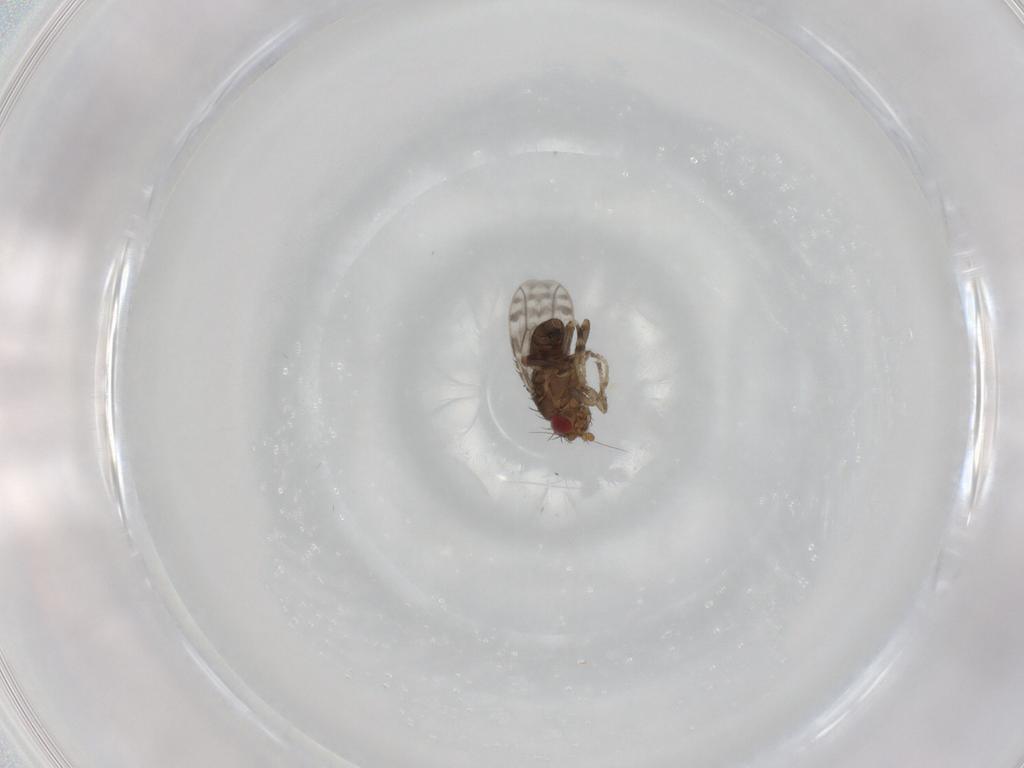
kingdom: Animalia
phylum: Arthropoda
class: Insecta
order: Diptera
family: Sphaeroceridae
